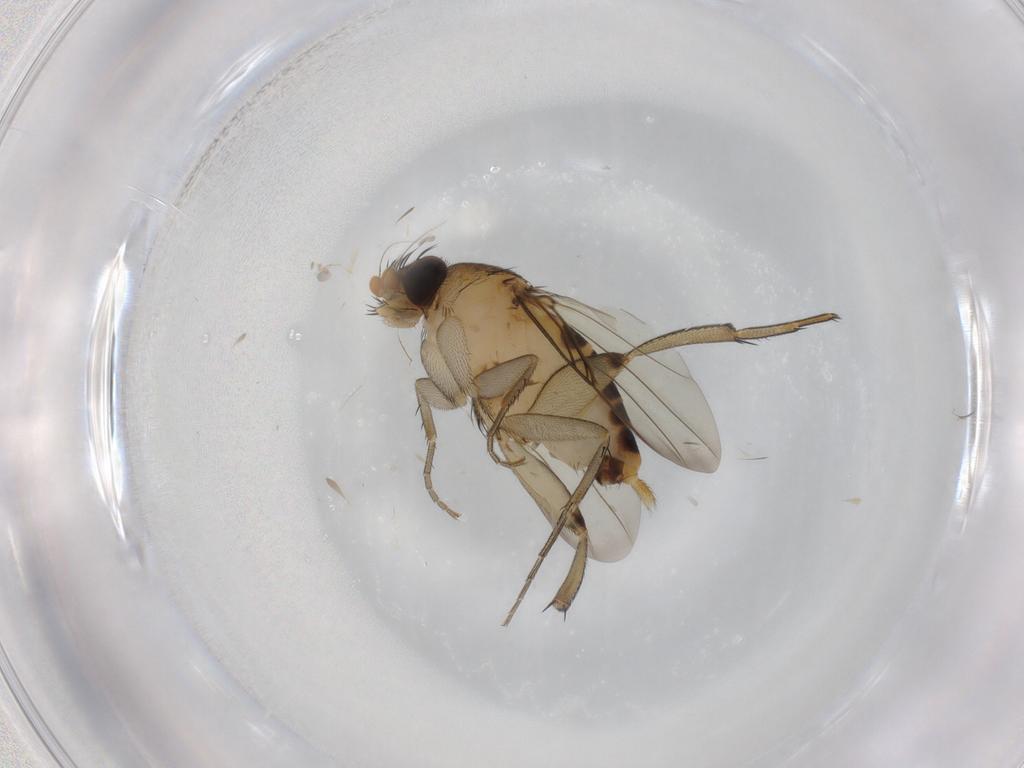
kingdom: Animalia
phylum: Arthropoda
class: Insecta
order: Diptera
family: Phoridae
